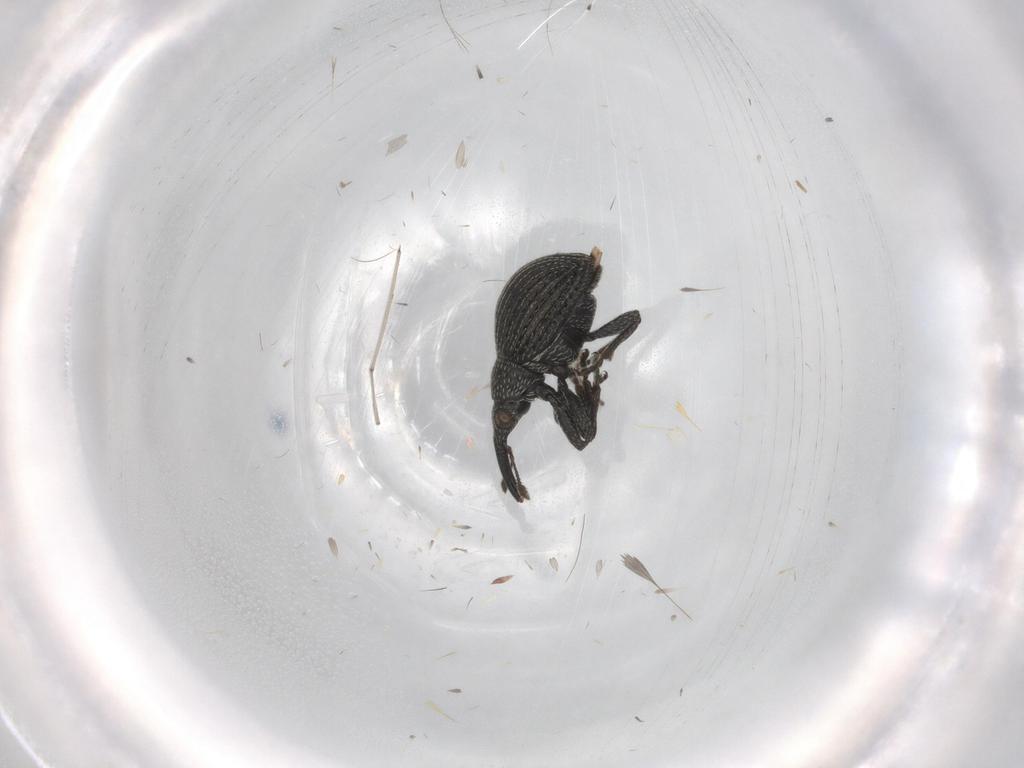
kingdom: Animalia
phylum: Arthropoda
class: Insecta
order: Coleoptera
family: Brentidae
